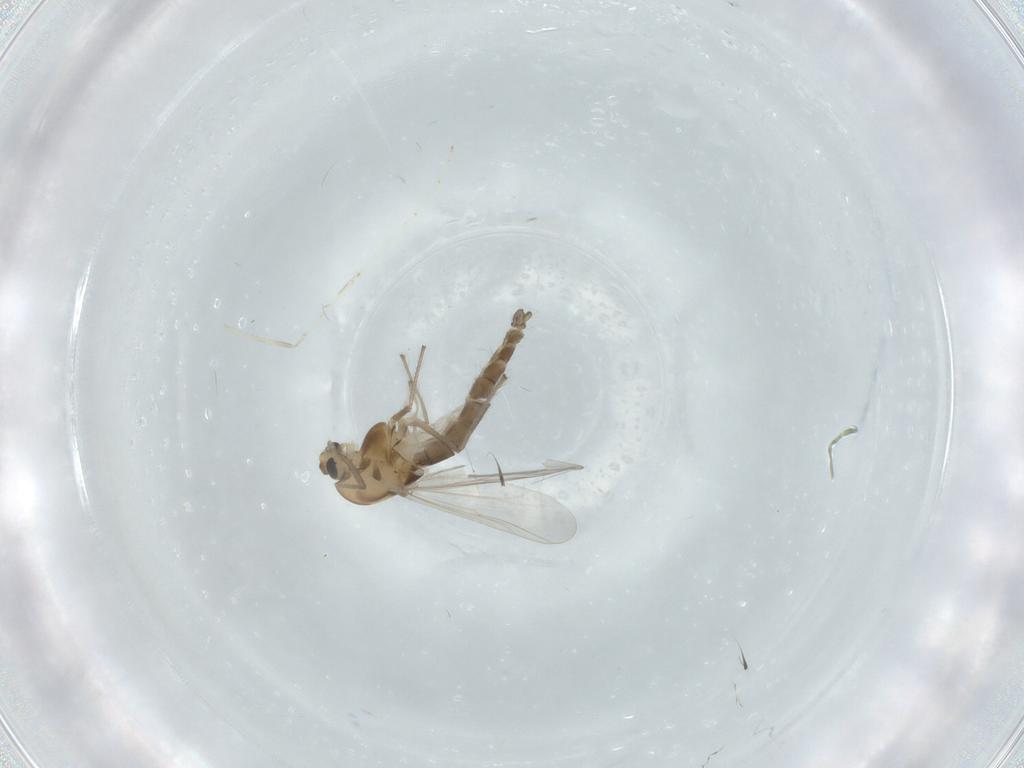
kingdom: Animalia
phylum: Arthropoda
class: Insecta
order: Diptera
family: Chironomidae
